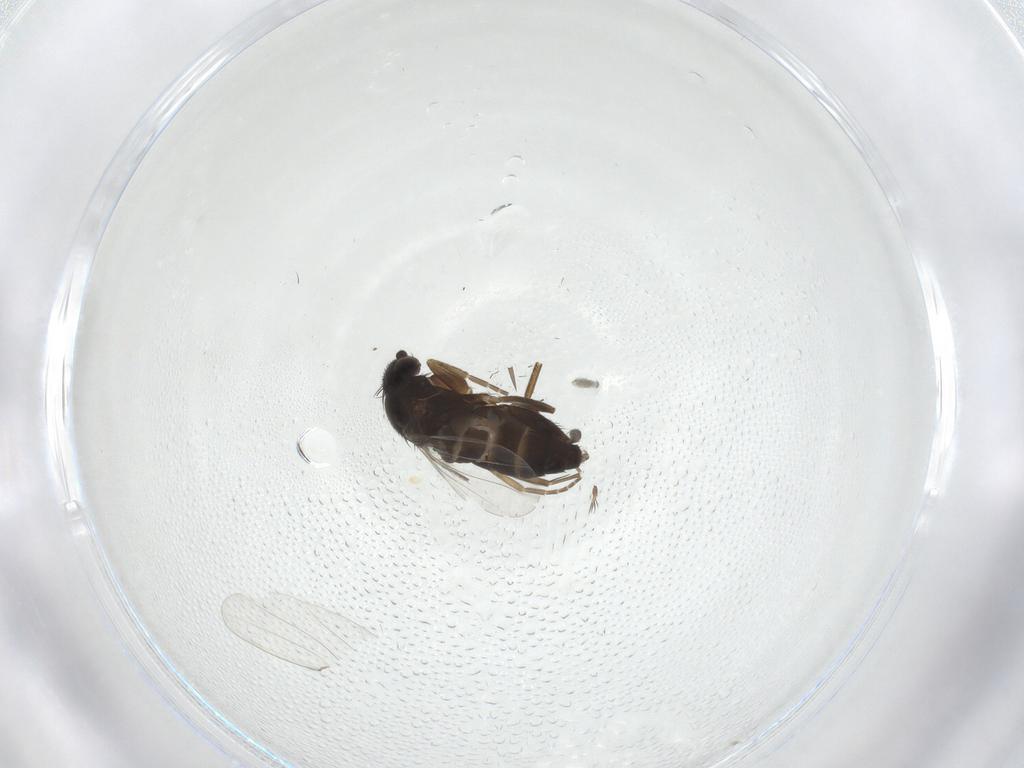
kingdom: Animalia
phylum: Arthropoda
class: Insecta
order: Diptera
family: Phoridae
